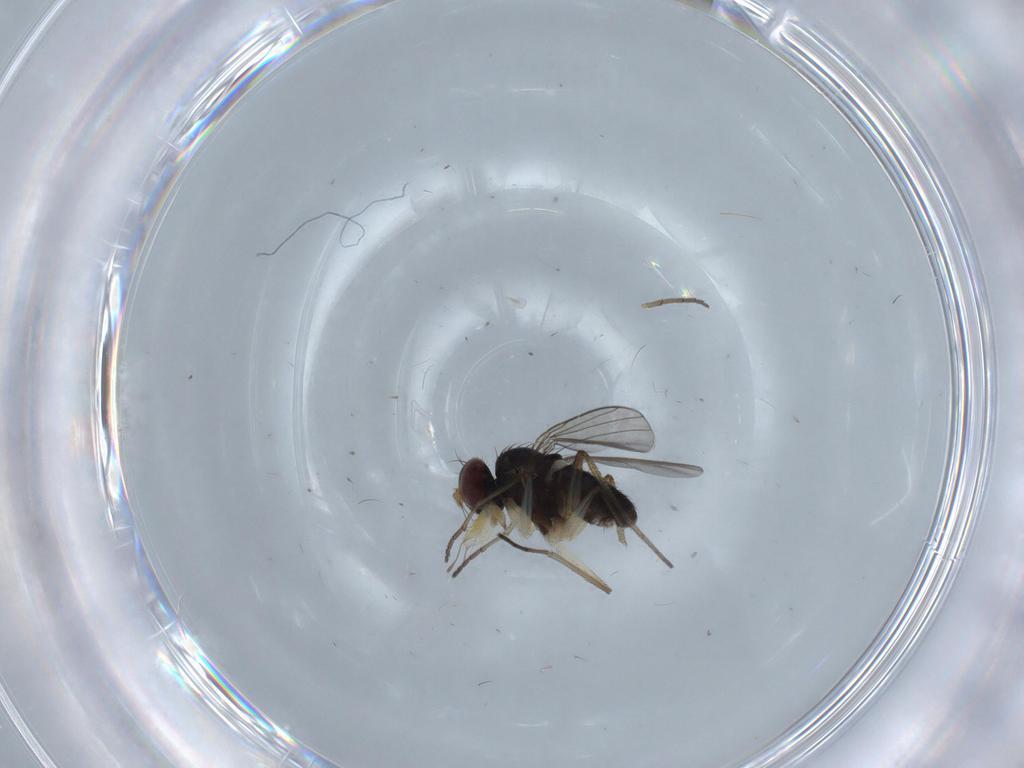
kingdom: Animalia
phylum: Arthropoda
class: Insecta
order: Diptera
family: Dolichopodidae
